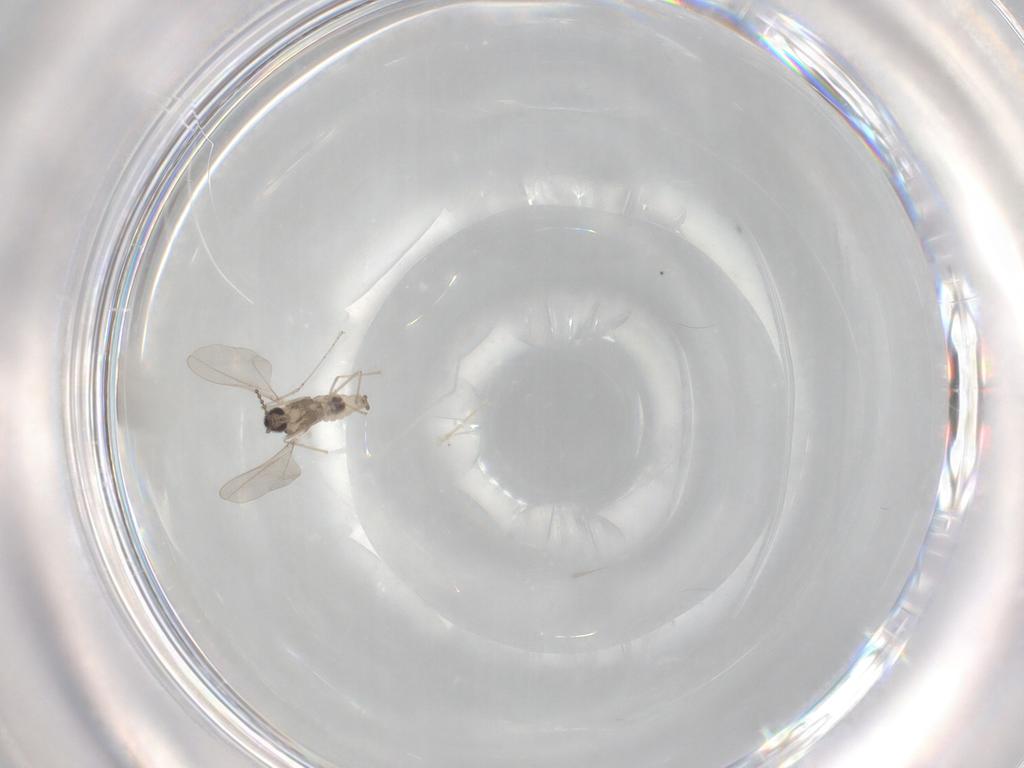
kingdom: Animalia
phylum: Arthropoda
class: Insecta
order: Diptera
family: Cecidomyiidae
